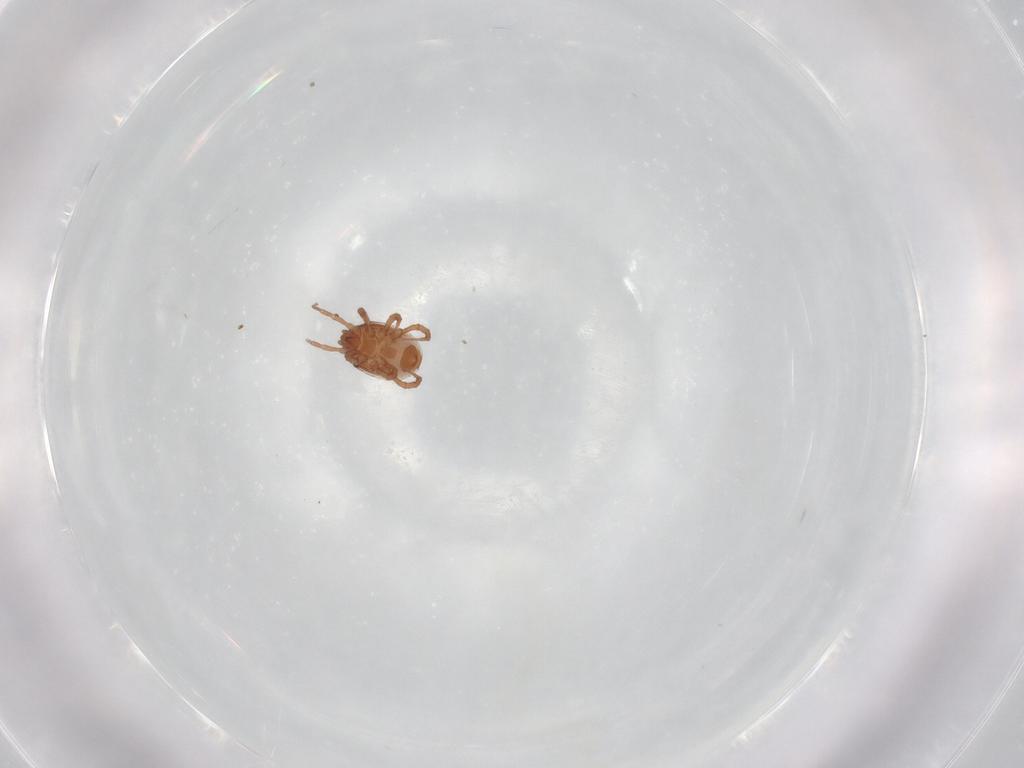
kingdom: Animalia
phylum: Arthropoda
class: Arachnida
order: Mesostigmata
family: Blattisociidae
